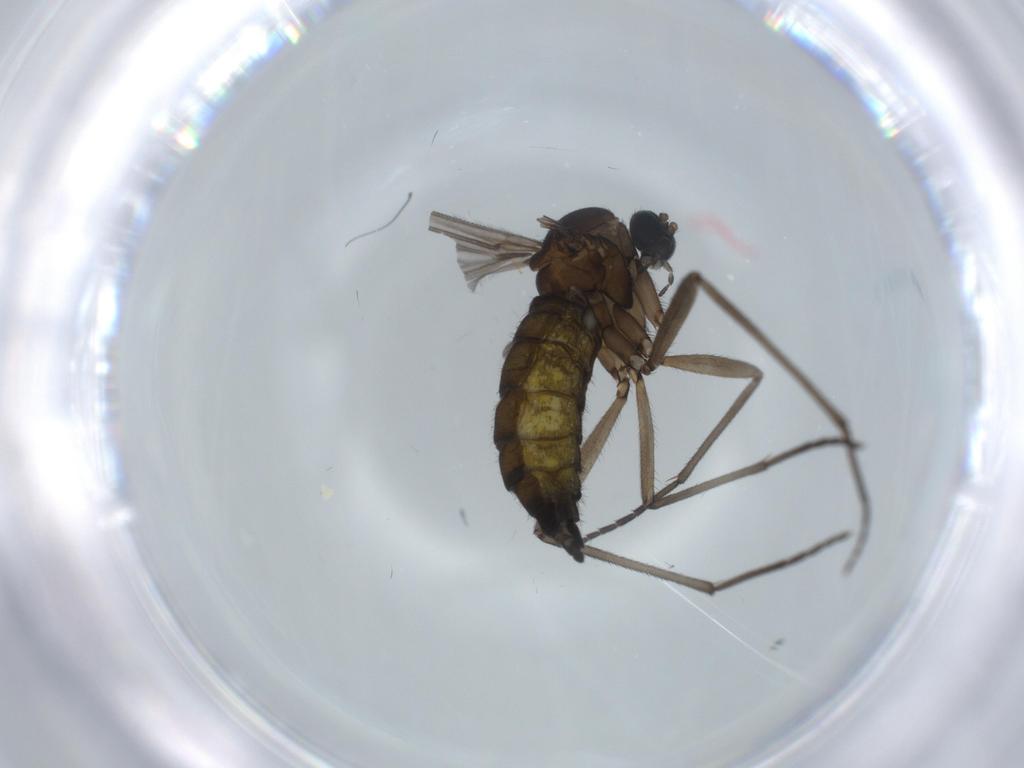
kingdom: Animalia
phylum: Arthropoda
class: Insecta
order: Diptera
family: Sciaridae
